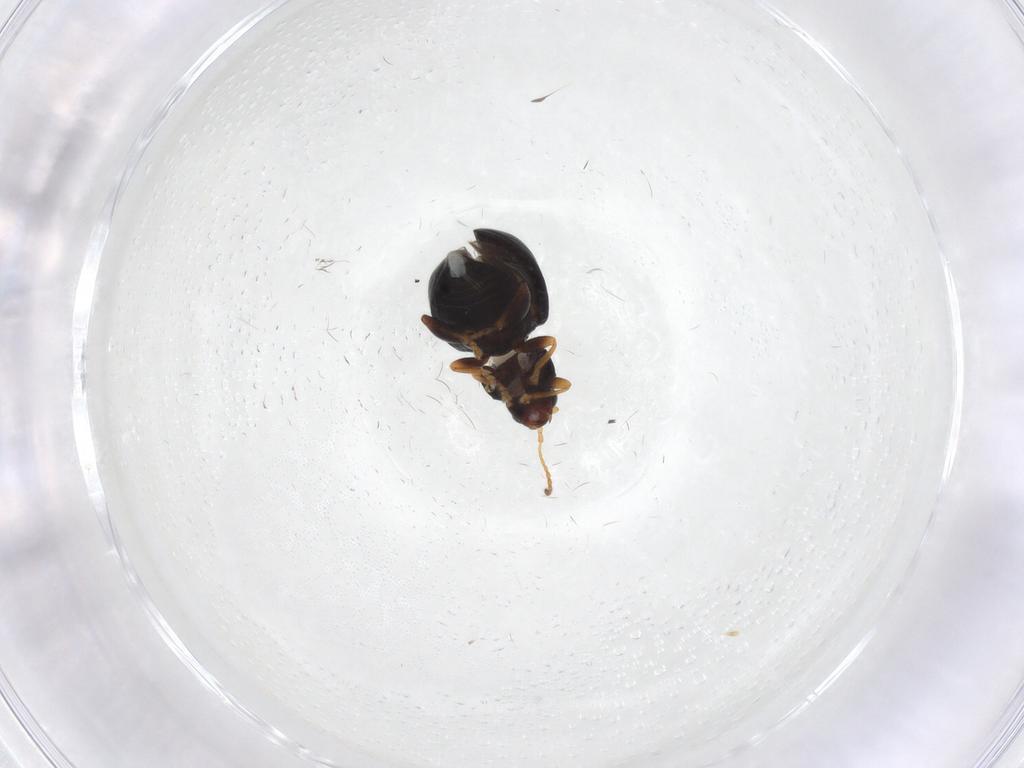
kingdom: Animalia
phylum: Arthropoda
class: Insecta
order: Coleoptera
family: Chrysomelidae
